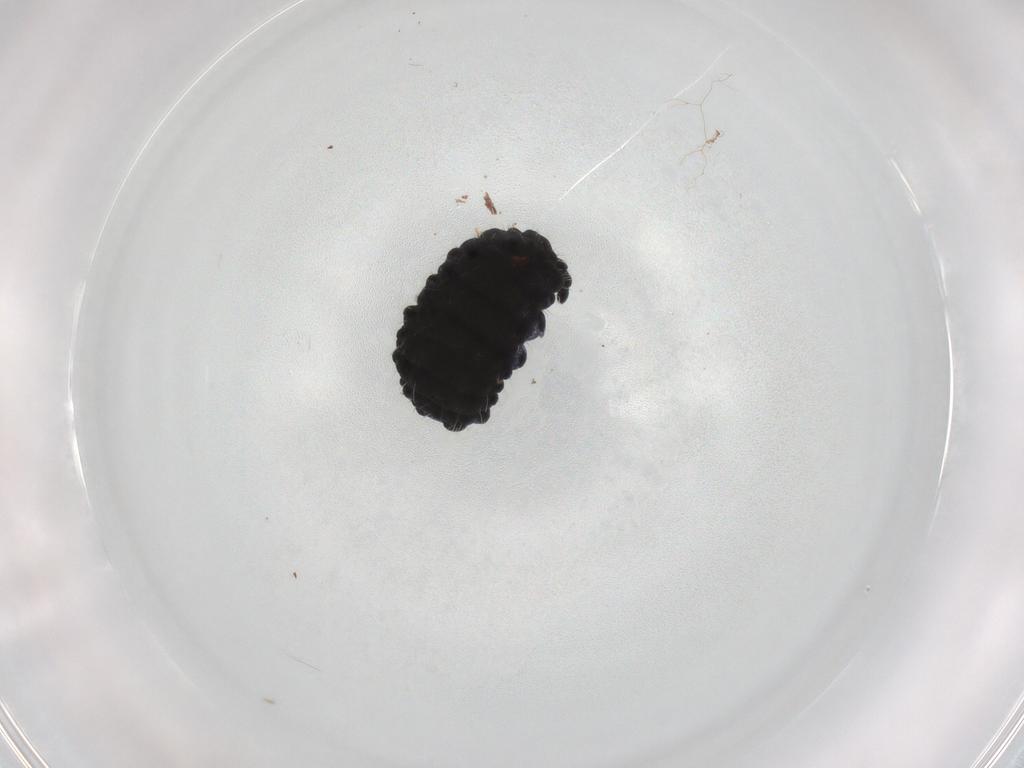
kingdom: Animalia
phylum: Arthropoda
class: Collembola
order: Poduromorpha
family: Neanuridae
